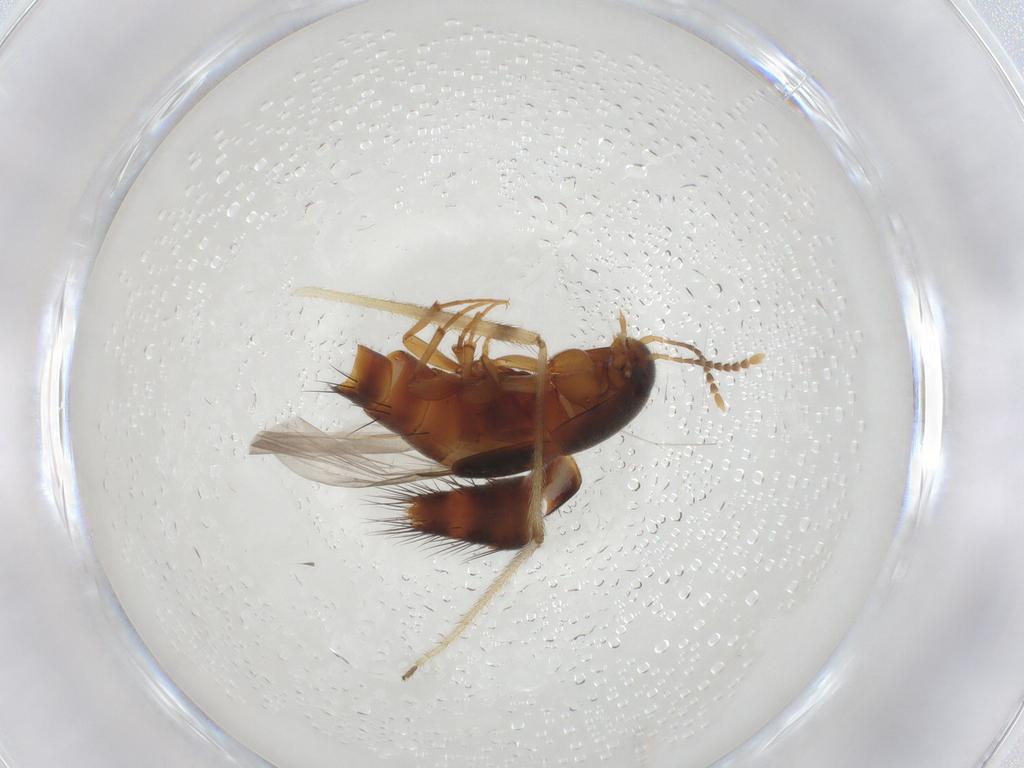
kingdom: Animalia
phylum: Arthropoda
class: Insecta
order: Coleoptera
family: Staphylinidae
